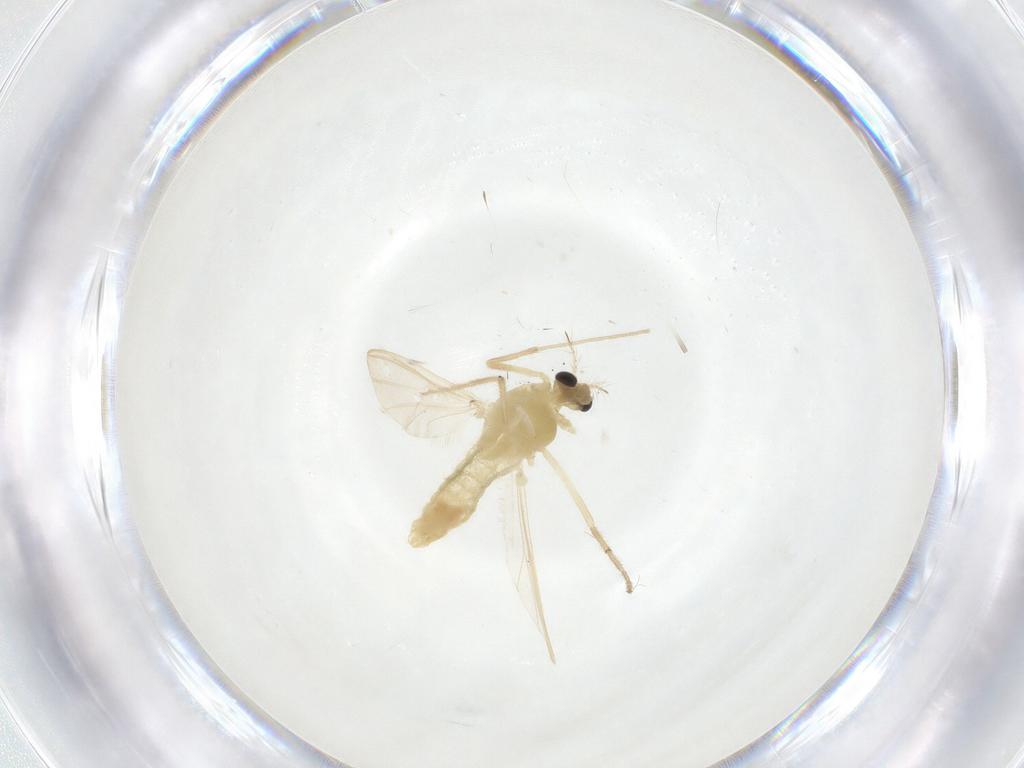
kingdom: Animalia
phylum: Arthropoda
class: Insecta
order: Diptera
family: Chironomidae
